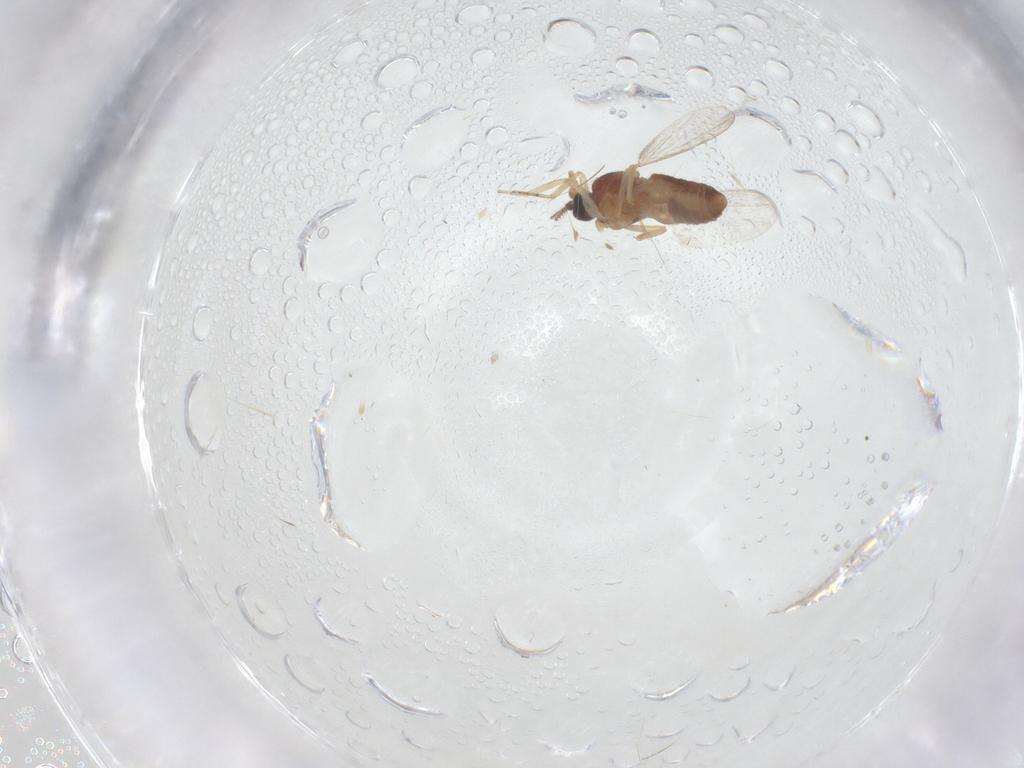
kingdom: Animalia
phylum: Arthropoda
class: Insecta
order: Diptera
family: Ceratopogonidae
